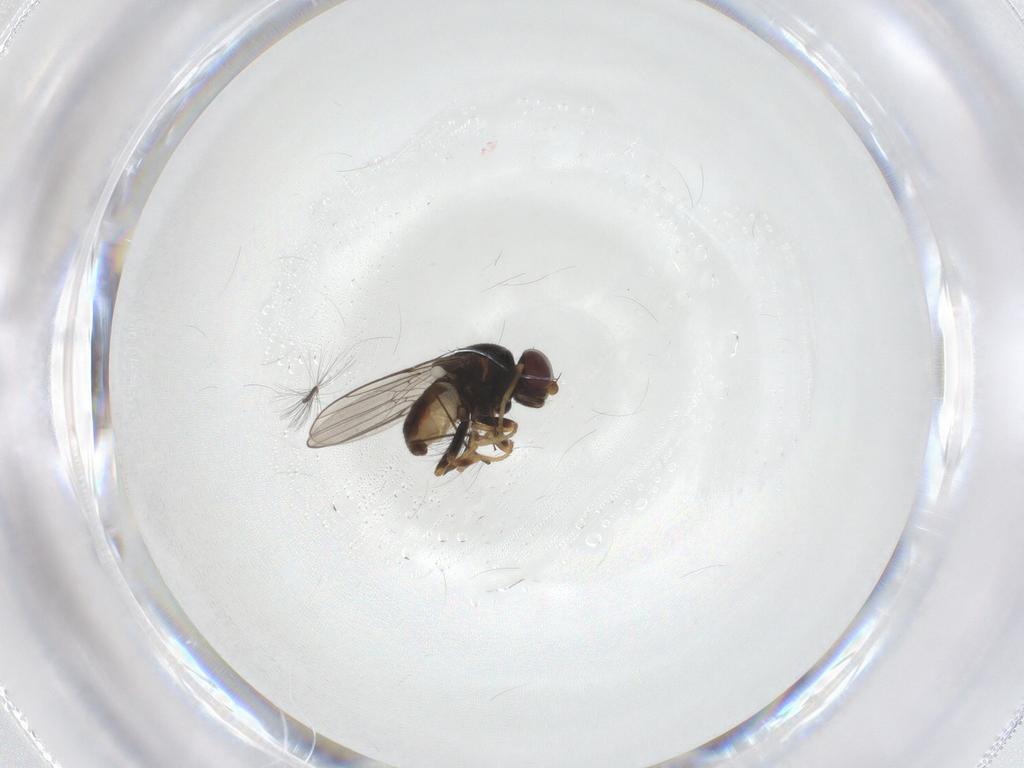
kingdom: Animalia
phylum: Arthropoda
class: Insecta
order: Diptera
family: Chloropidae
